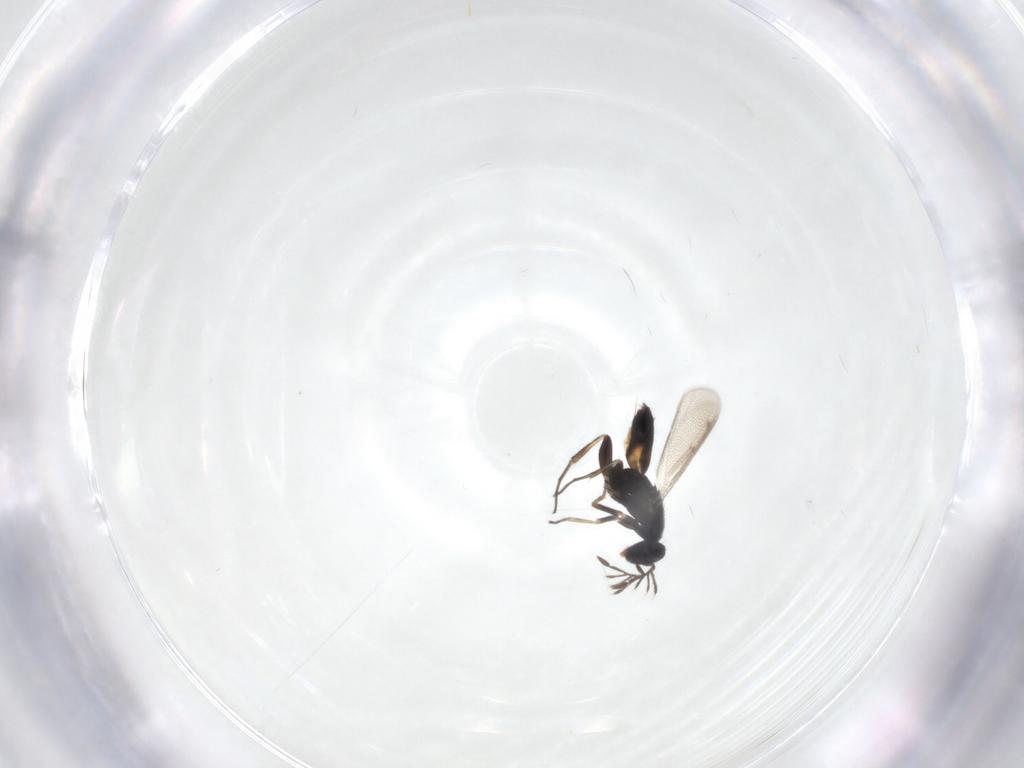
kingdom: Animalia
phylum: Arthropoda
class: Insecta
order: Hymenoptera
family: Eulophidae
